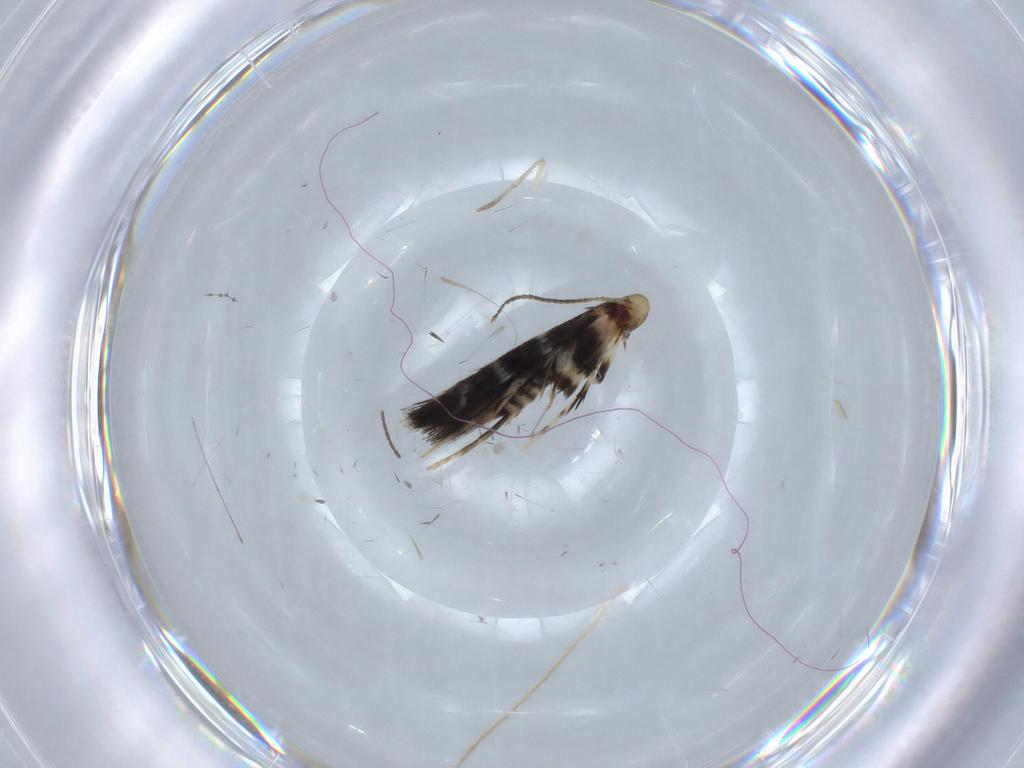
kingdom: Animalia
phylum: Arthropoda
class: Insecta
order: Lepidoptera
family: Gracillariidae
